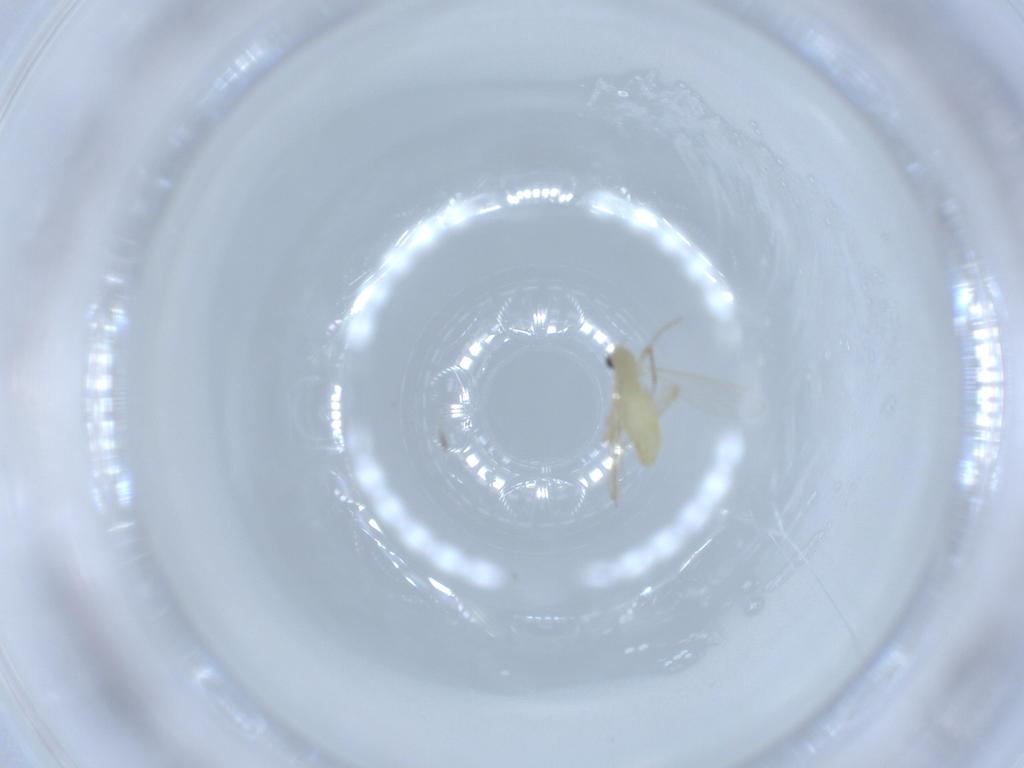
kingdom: Animalia
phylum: Arthropoda
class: Insecta
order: Diptera
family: Chironomidae
